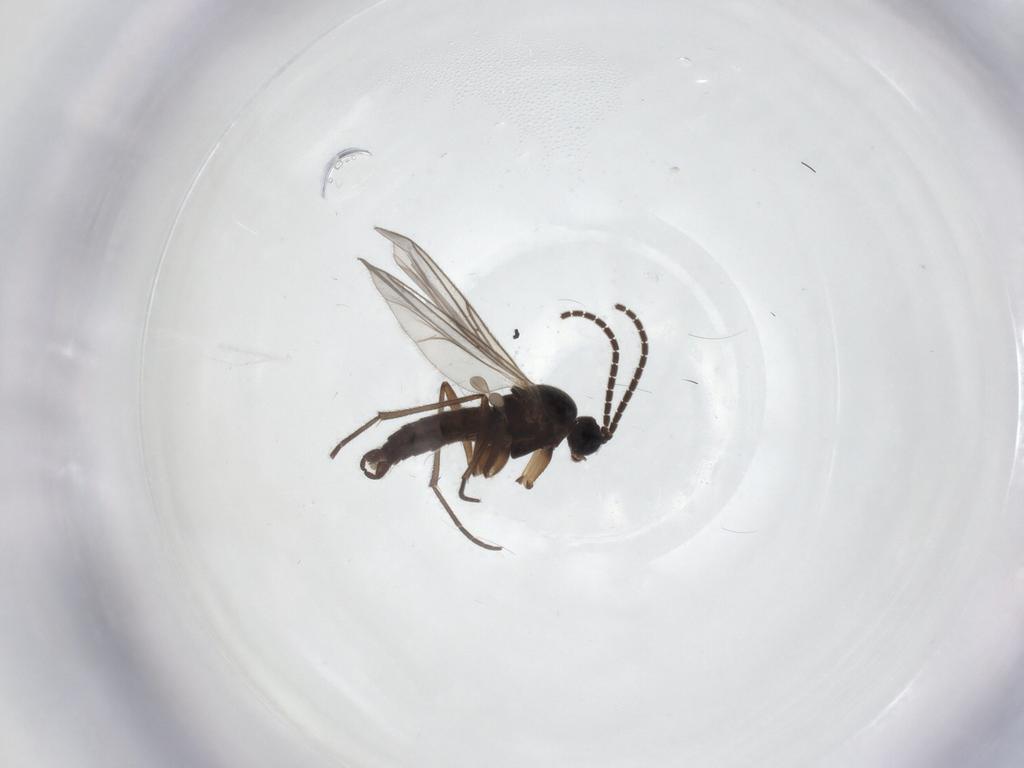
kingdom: Animalia
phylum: Arthropoda
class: Insecta
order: Diptera
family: Sciaridae
